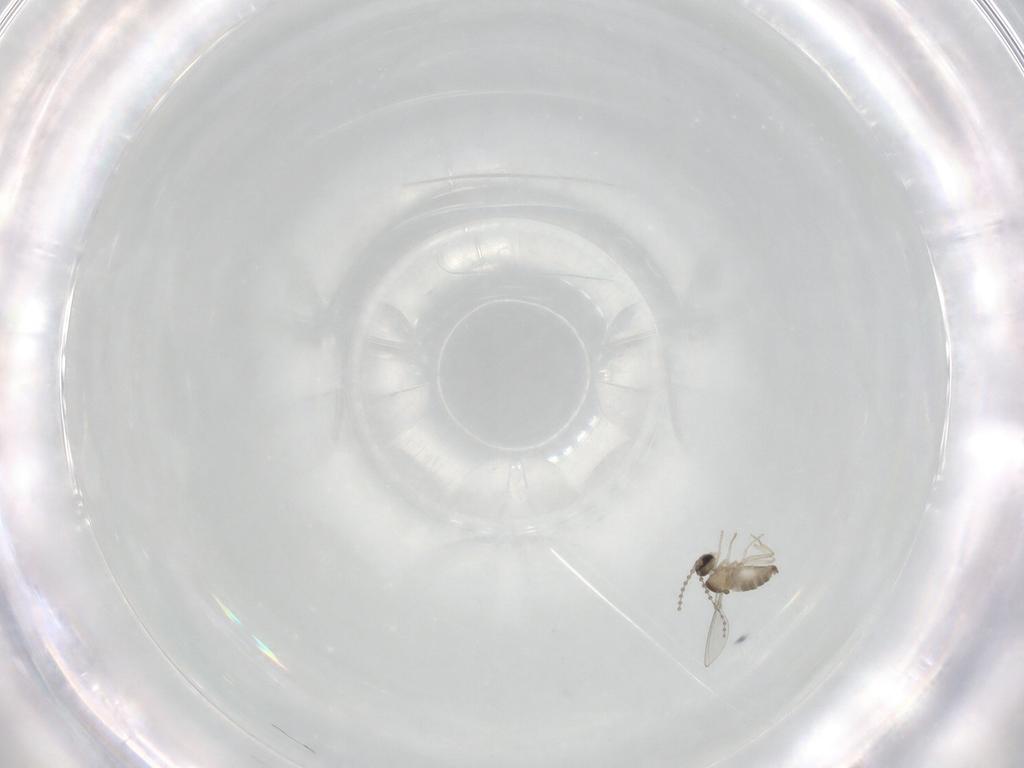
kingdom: Animalia
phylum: Arthropoda
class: Insecta
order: Diptera
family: Cecidomyiidae
